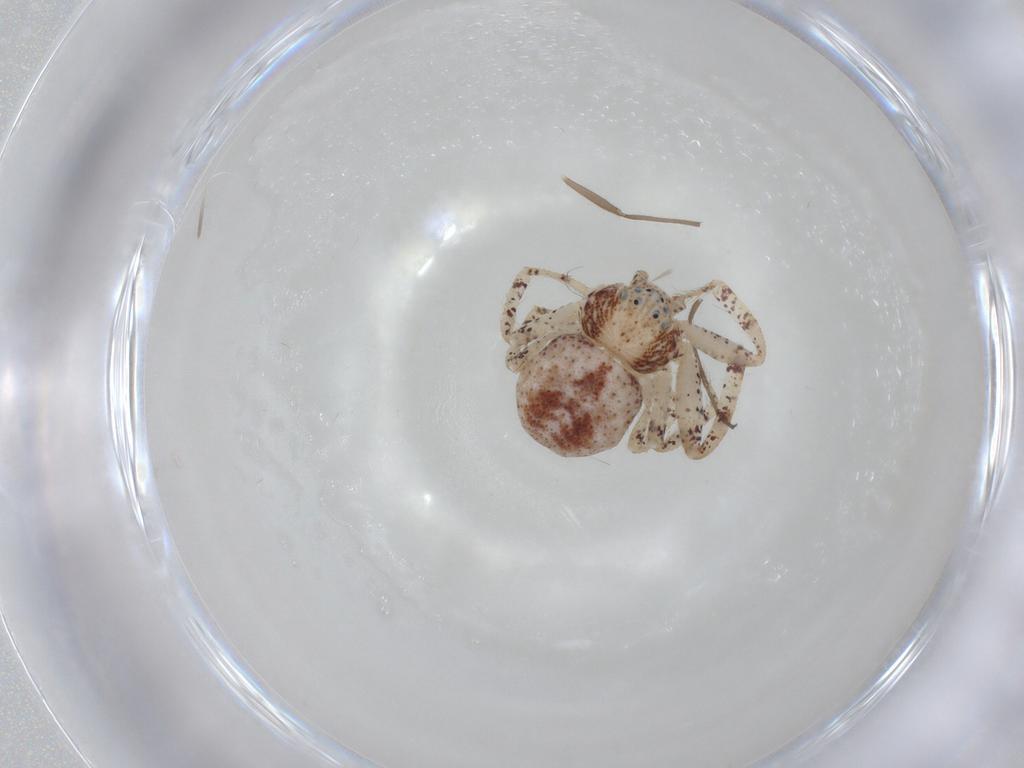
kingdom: Animalia
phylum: Arthropoda
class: Arachnida
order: Araneae
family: Philodromidae
